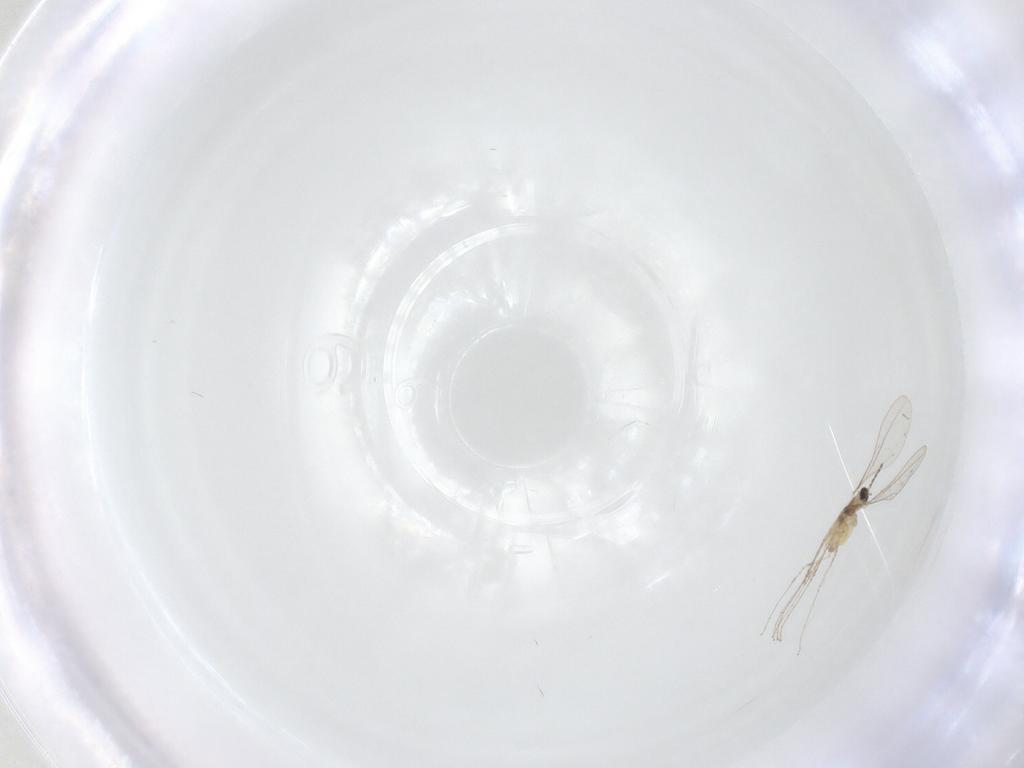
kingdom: Animalia
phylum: Arthropoda
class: Insecta
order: Diptera
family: Cecidomyiidae
